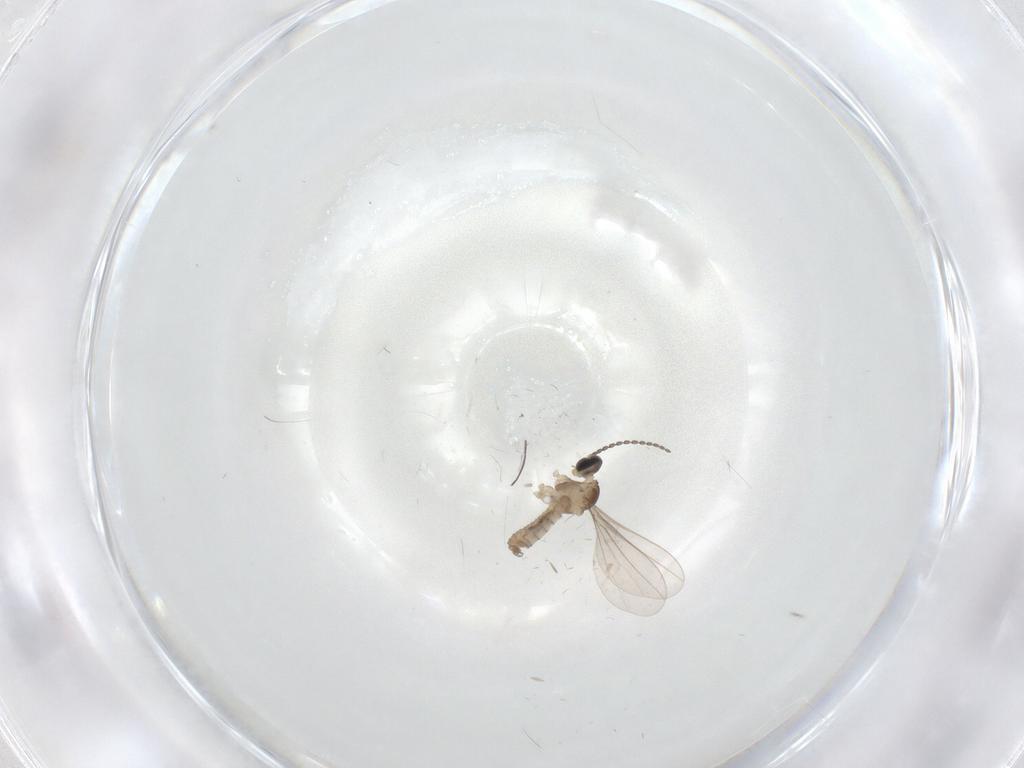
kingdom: Animalia
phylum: Arthropoda
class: Insecta
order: Diptera
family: Cecidomyiidae
